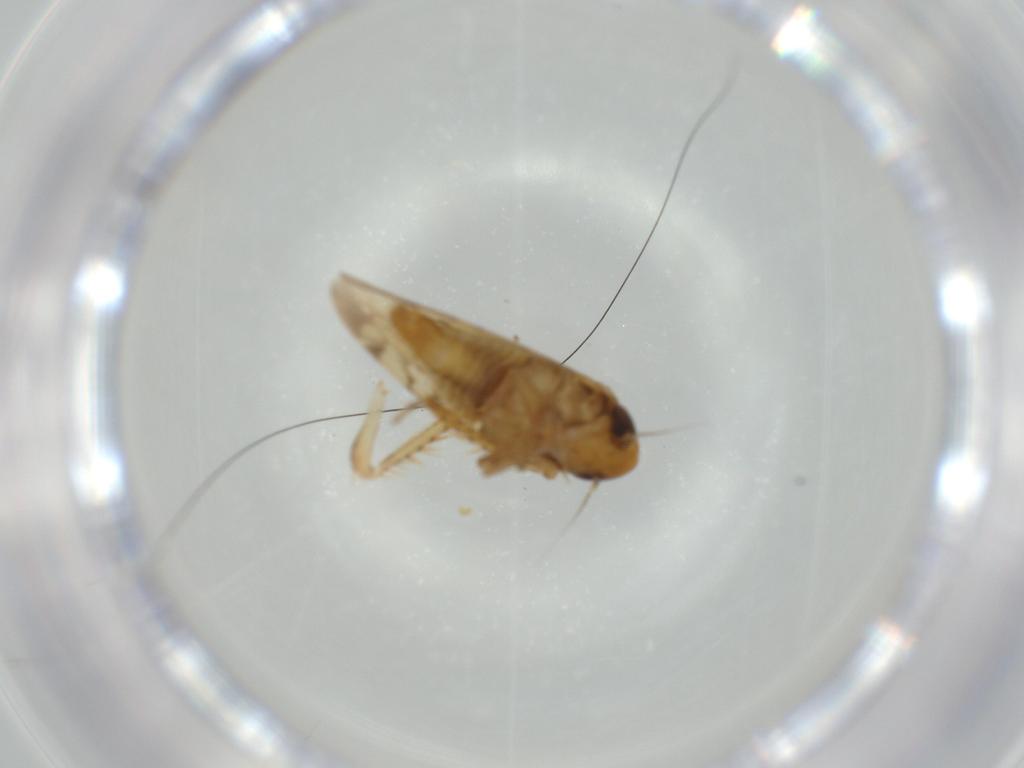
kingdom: Animalia
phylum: Arthropoda
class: Insecta
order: Hemiptera
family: Cicadellidae
